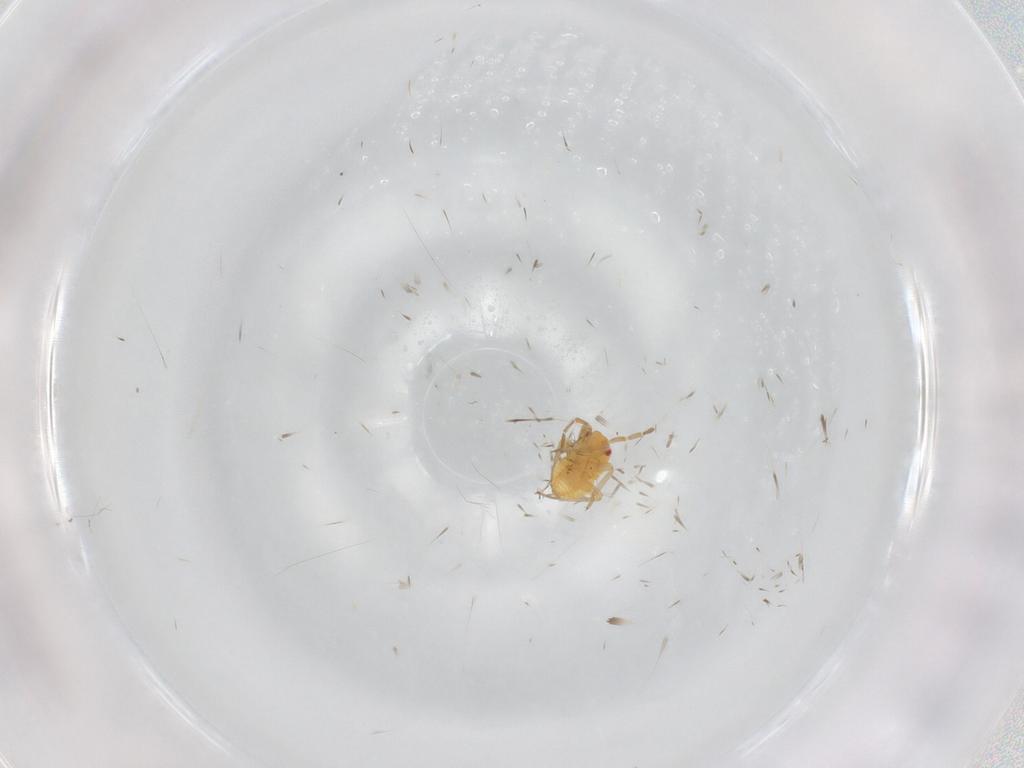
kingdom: Animalia
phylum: Arthropoda
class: Insecta
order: Hemiptera
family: Miridae
